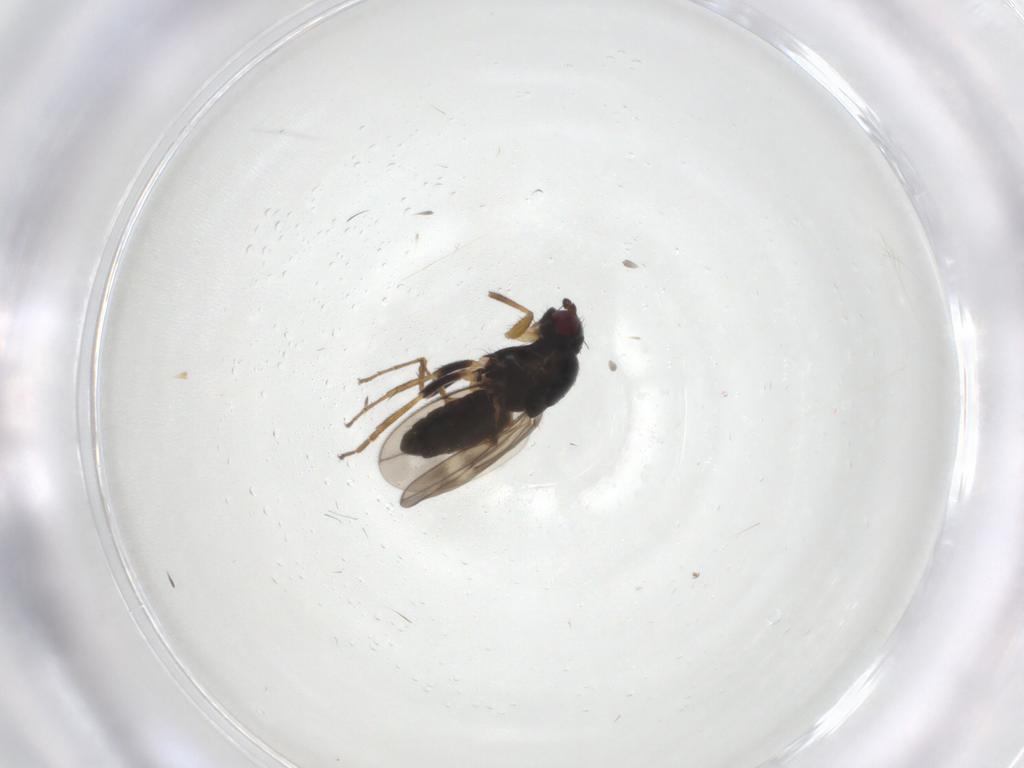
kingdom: Animalia
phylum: Arthropoda
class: Insecta
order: Diptera
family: Sphaeroceridae
